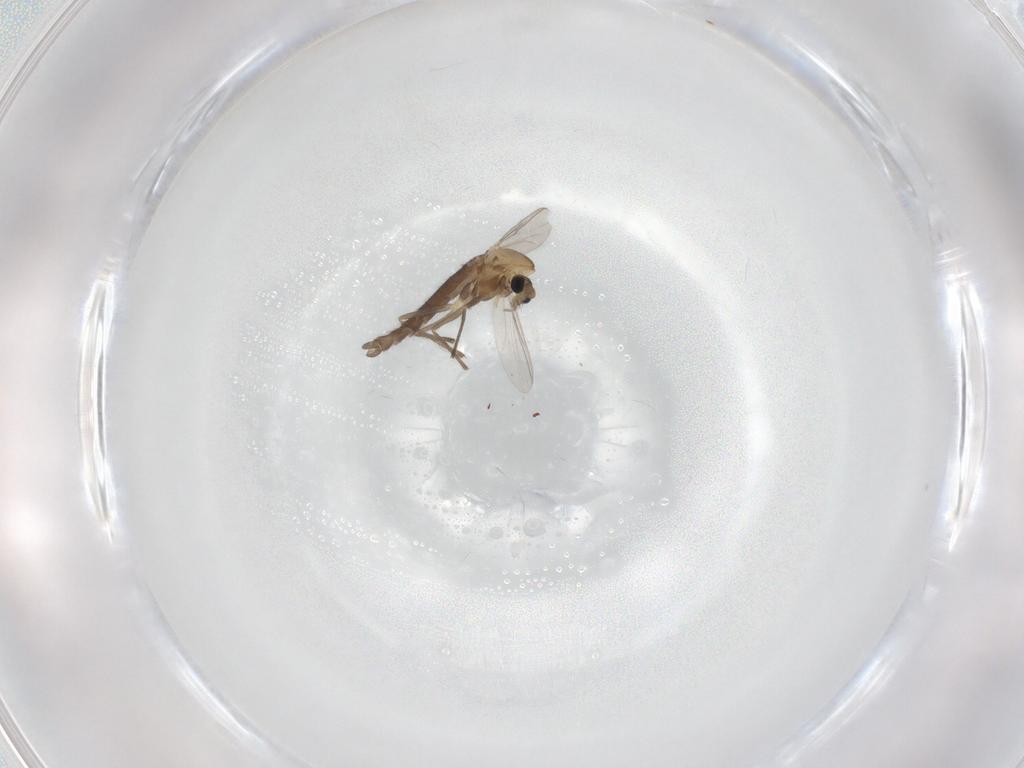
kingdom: Animalia
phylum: Arthropoda
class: Insecta
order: Diptera
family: Chironomidae
